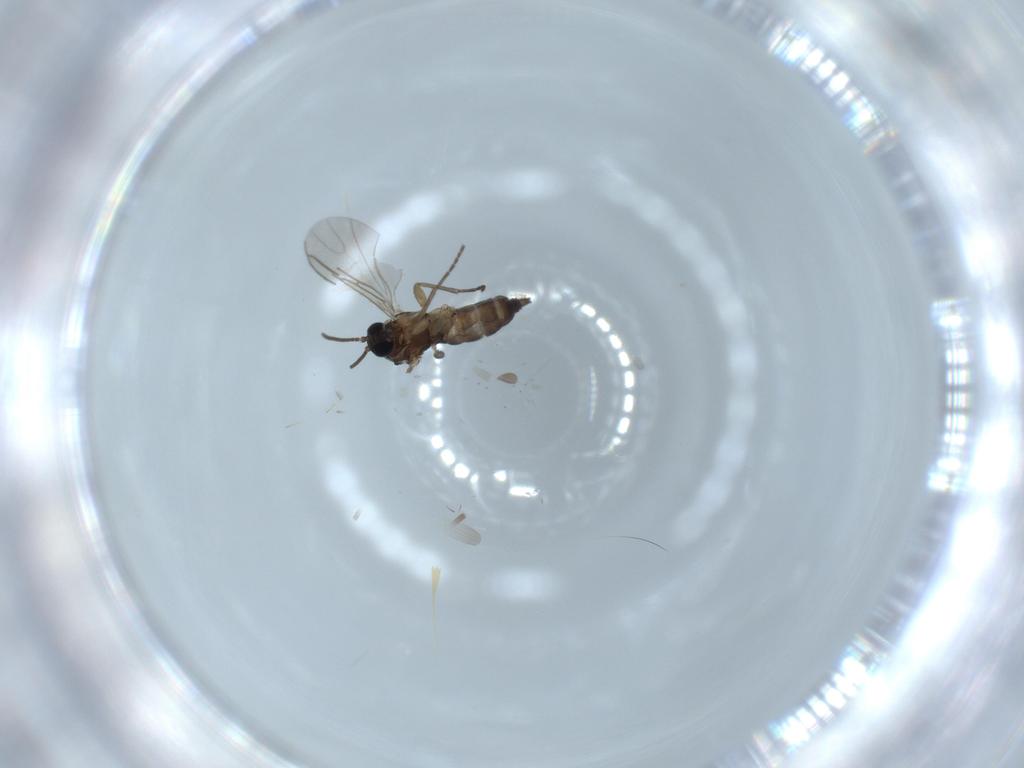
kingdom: Animalia
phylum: Arthropoda
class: Insecta
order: Diptera
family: Sciaridae
